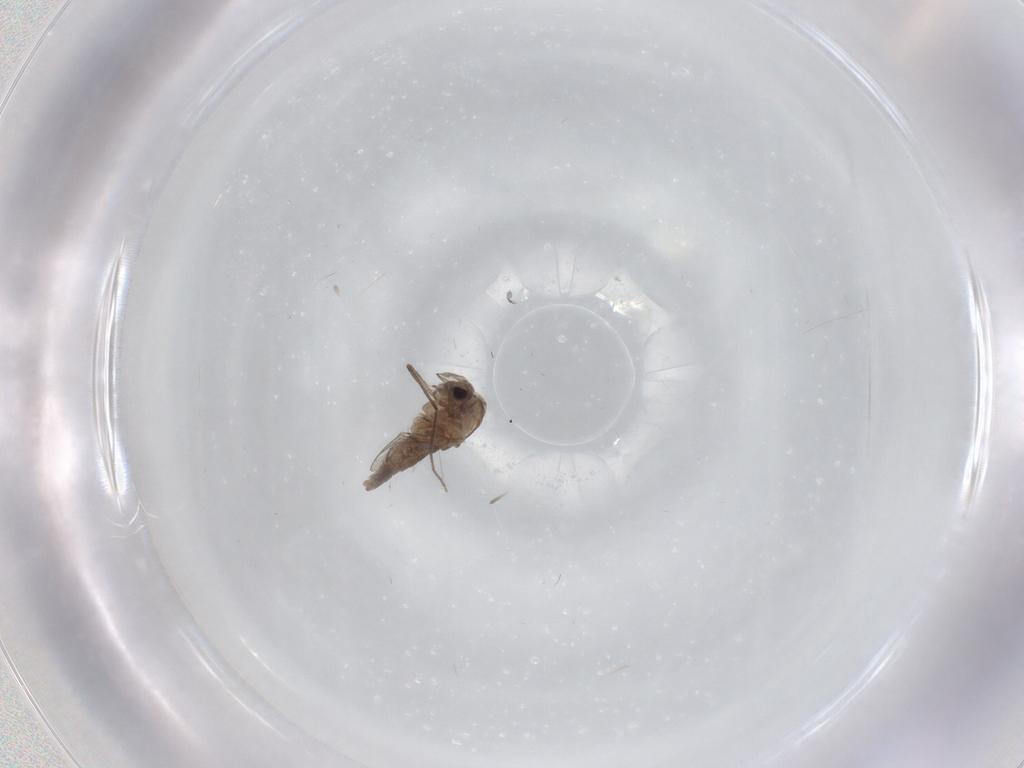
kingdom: Animalia
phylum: Arthropoda
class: Insecta
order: Diptera
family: Chironomidae
